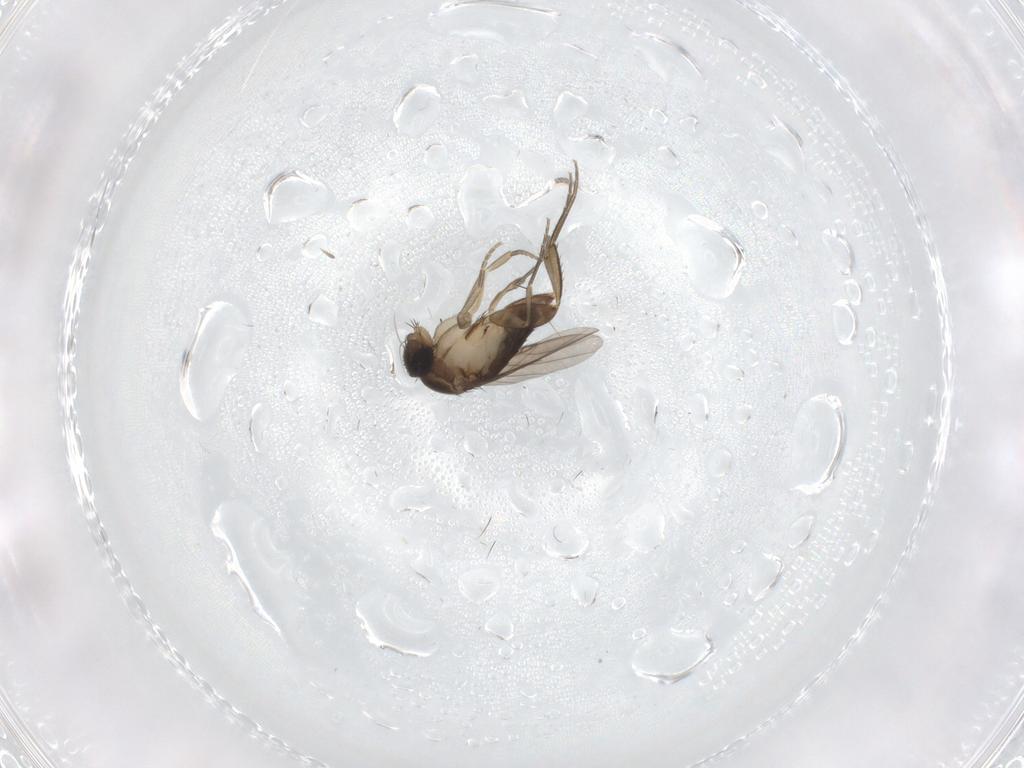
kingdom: Animalia
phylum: Arthropoda
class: Insecta
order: Diptera
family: Phoridae
